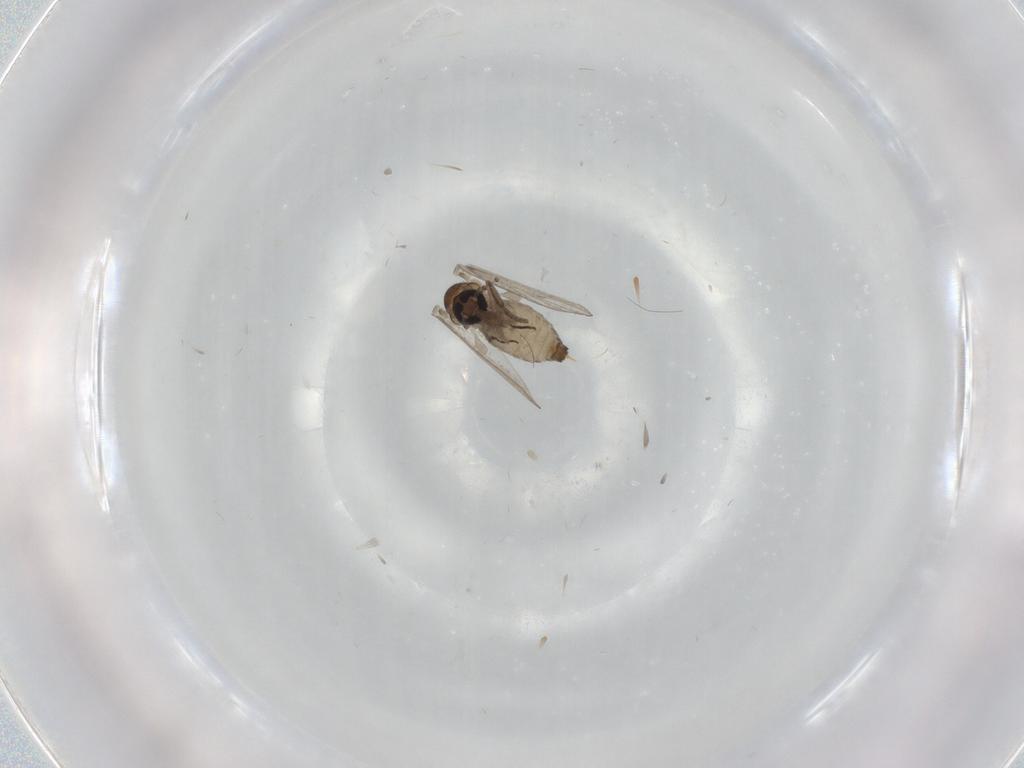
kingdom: Animalia
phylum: Arthropoda
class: Insecta
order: Diptera
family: Psychodidae
